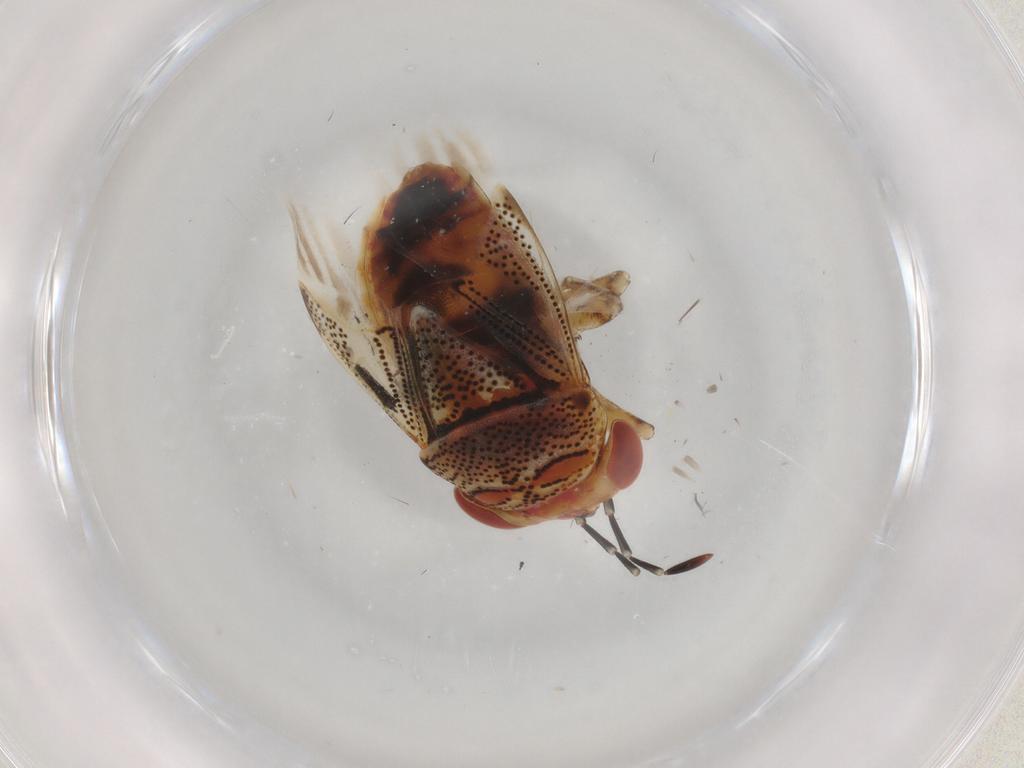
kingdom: Animalia
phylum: Arthropoda
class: Insecta
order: Hemiptera
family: Geocoridae
